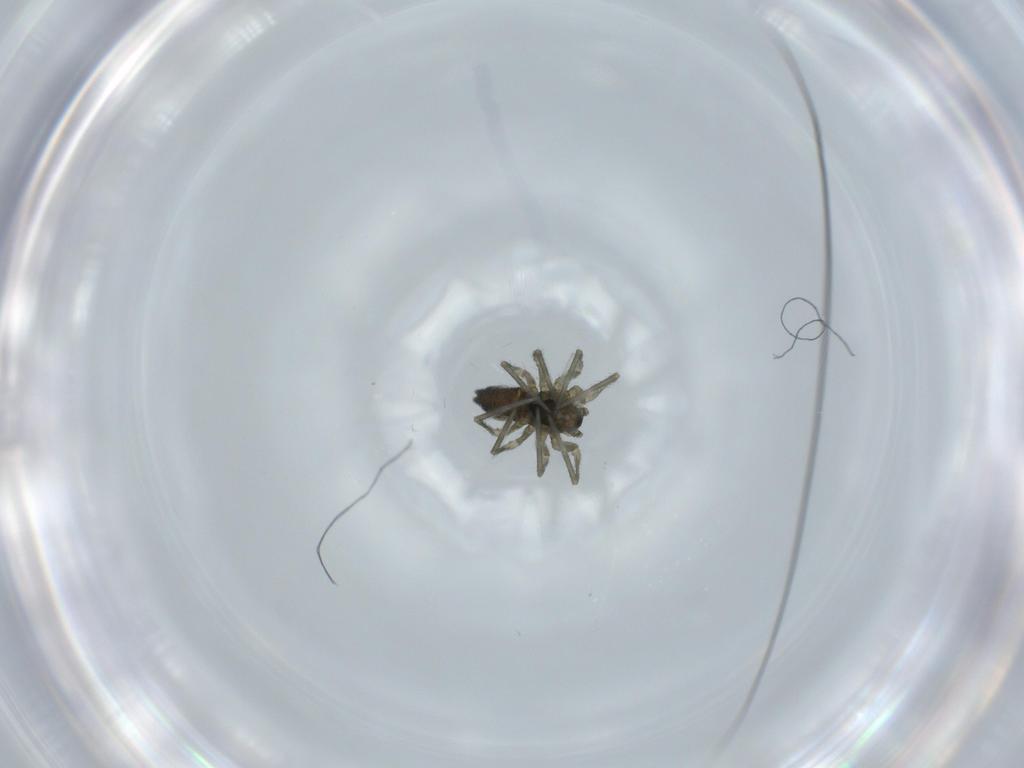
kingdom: Animalia
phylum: Arthropoda
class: Arachnida
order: Araneae
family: Linyphiidae
